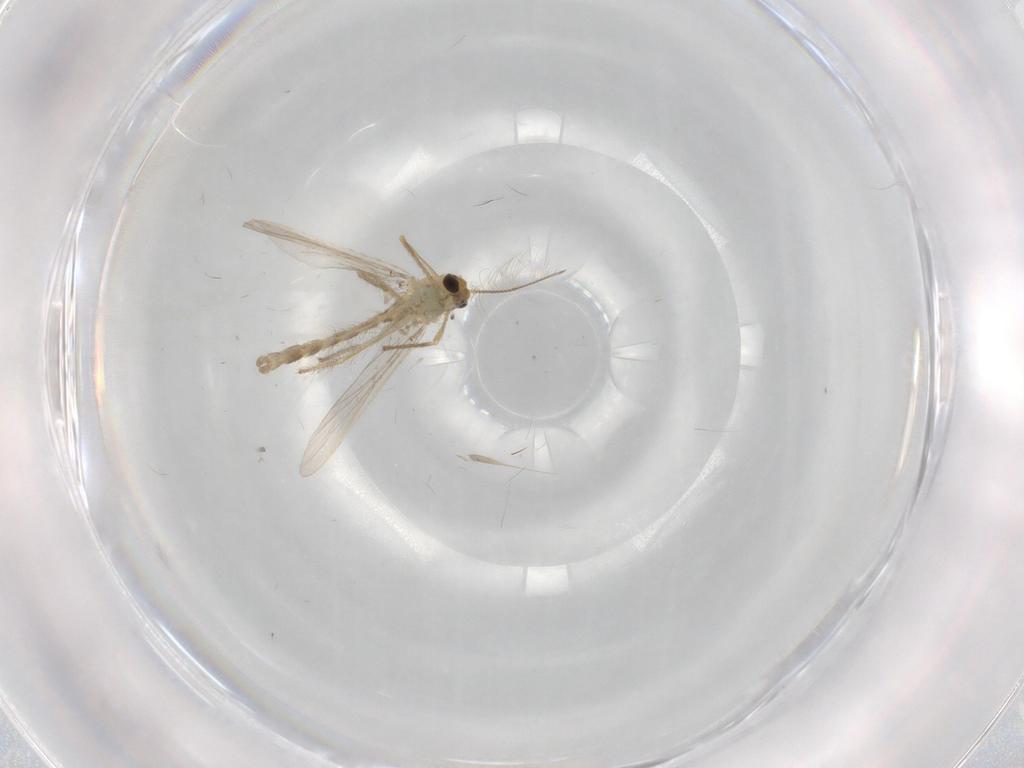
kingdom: Animalia
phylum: Arthropoda
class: Insecta
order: Diptera
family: Chironomidae
